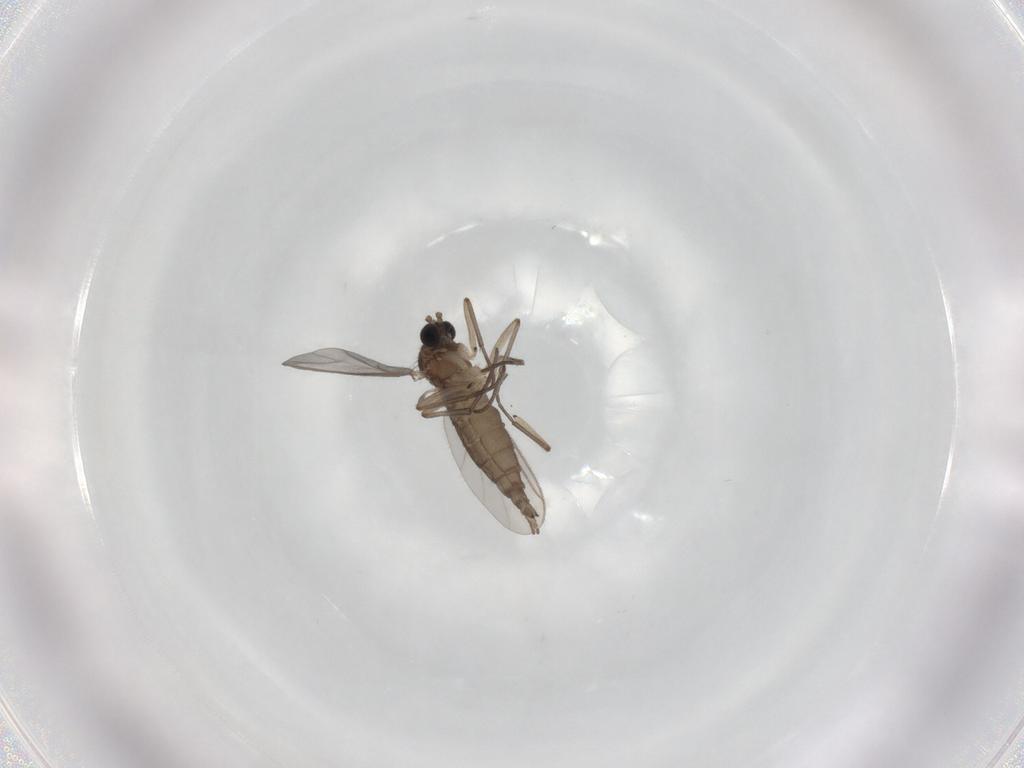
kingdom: Animalia
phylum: Arthropoda
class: Insecta
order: Diptera
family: Sciaridae
